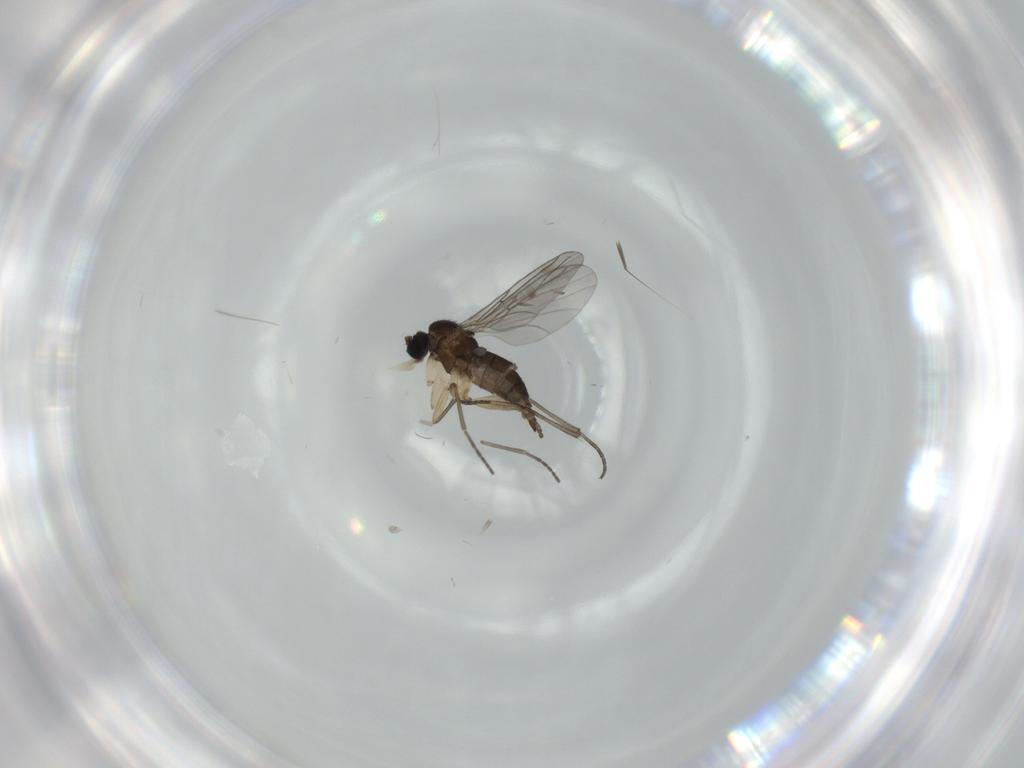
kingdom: Animalia
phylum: Arthropoda
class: Insecta
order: Diptera
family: Sciaridae
